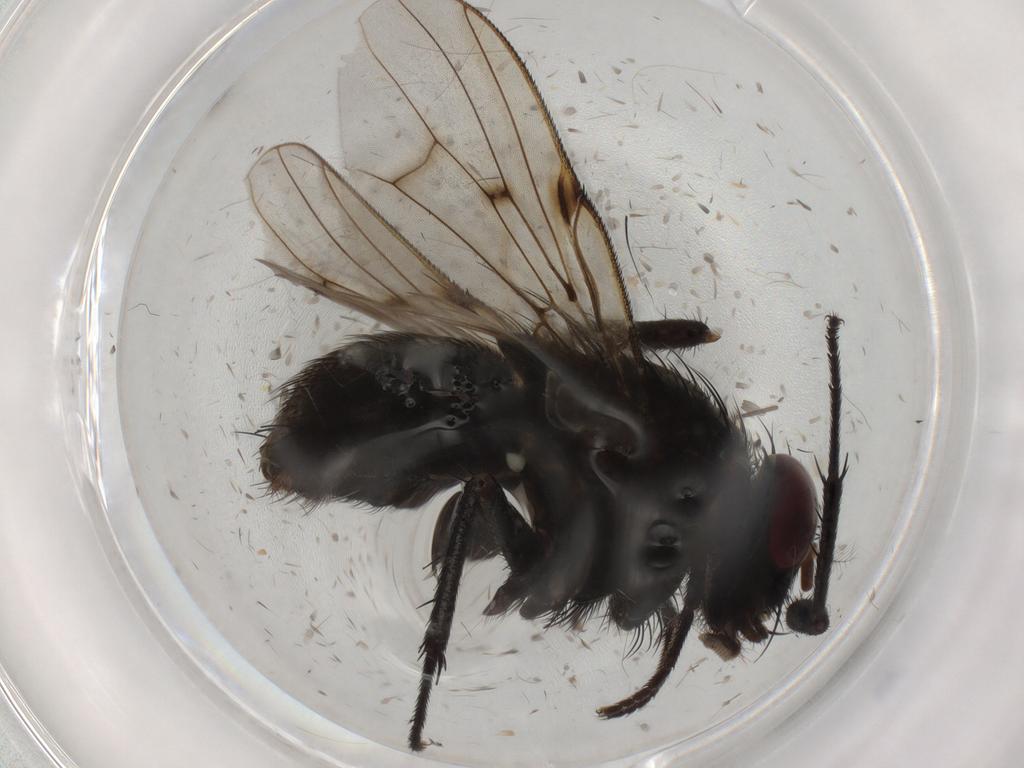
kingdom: Animalia
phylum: Arthropoda
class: Insecta
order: Diptera
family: Muscidae
